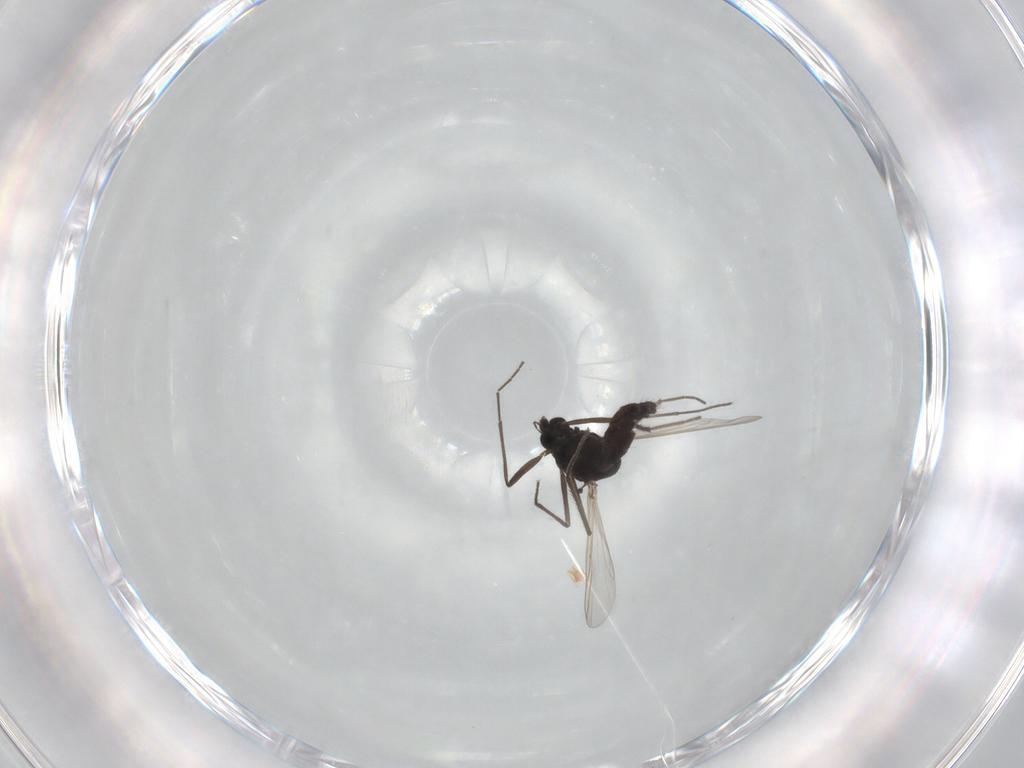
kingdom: Animalia
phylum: Arthropoda
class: Insecta
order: Diptera
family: Chironomidae
